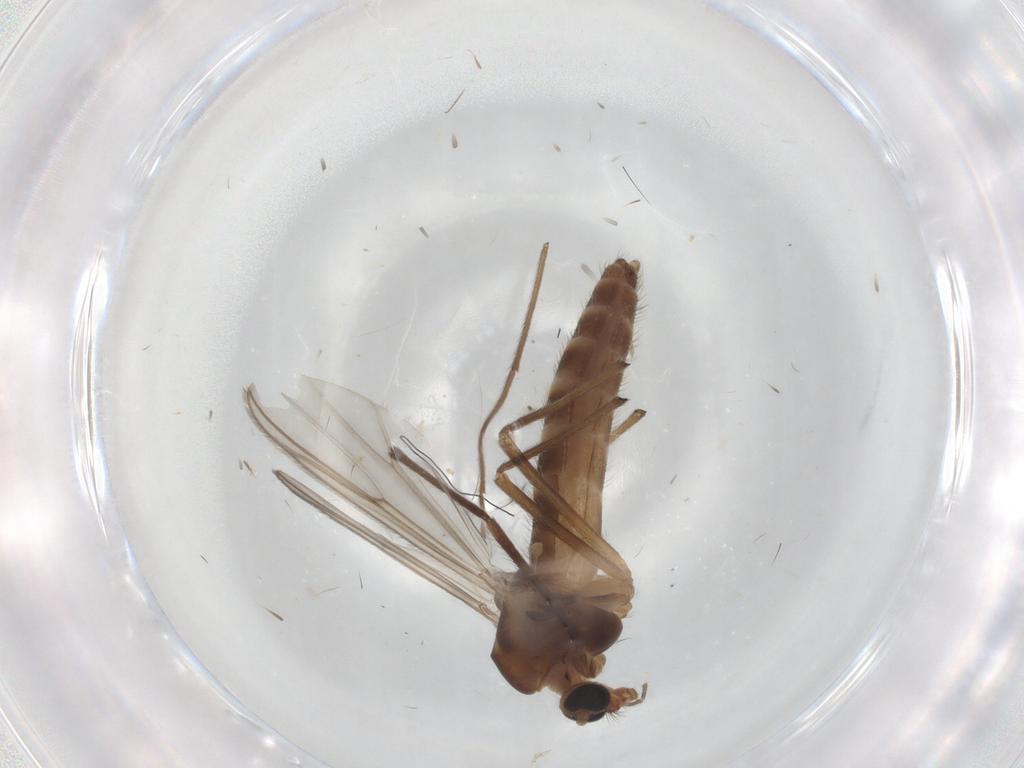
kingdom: Animalia
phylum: Arthropoda
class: Insecta
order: Diptera
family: Chironomidae
